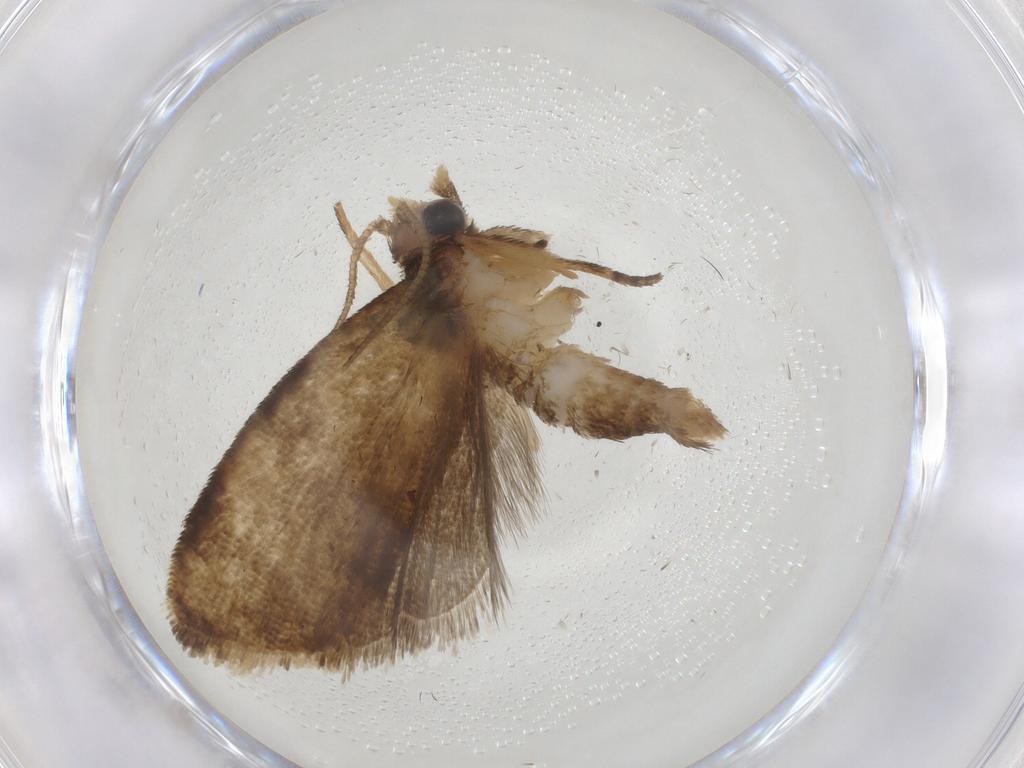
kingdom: Animalia
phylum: Arthropoda
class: Insecta
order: Lepidoptera
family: Tortricidae
